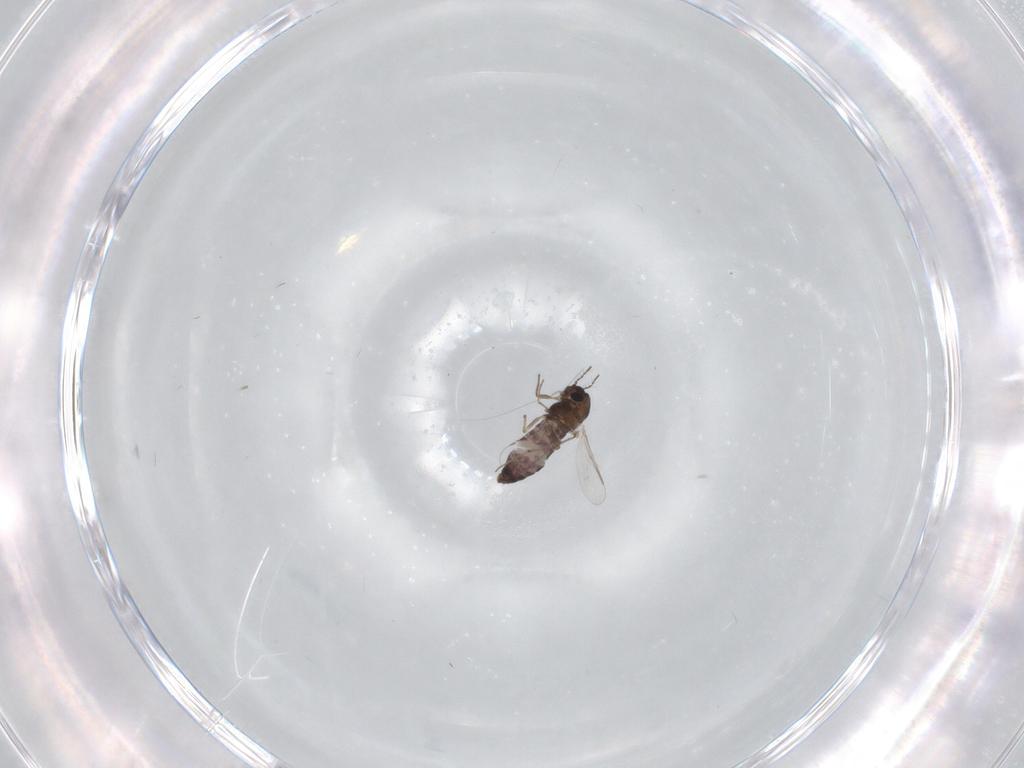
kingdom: Animalia
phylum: Arthropoda
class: Insecta
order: Diptera
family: Chironomidae
